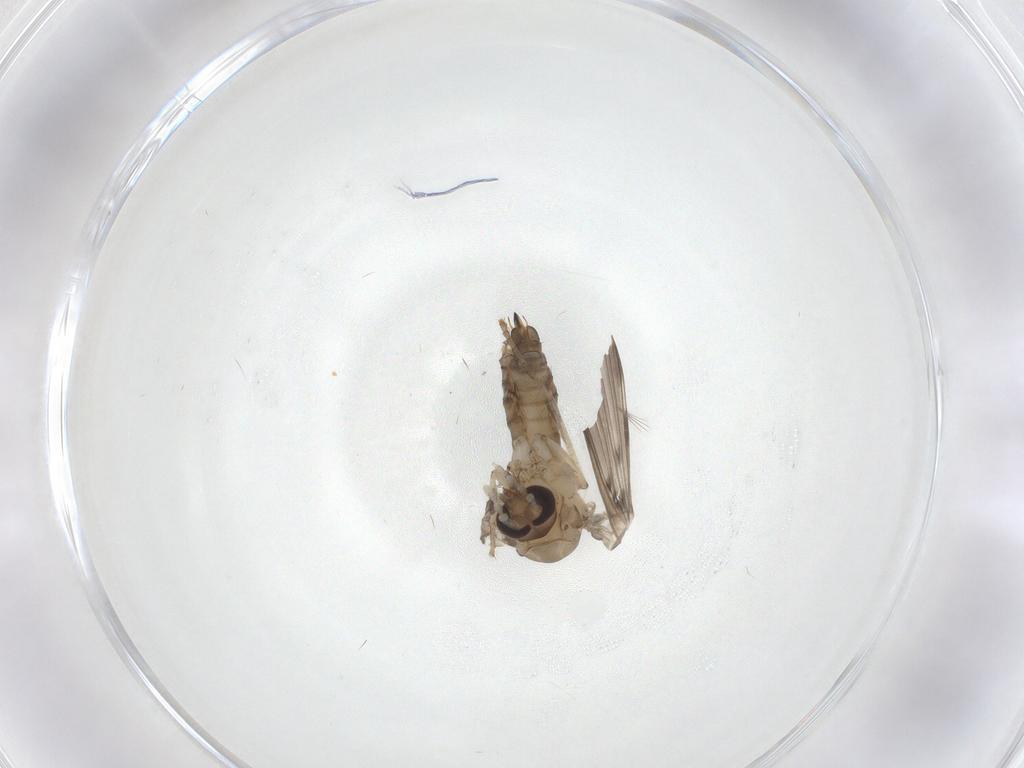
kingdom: Animalia
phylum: Arthropoda
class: Insecta
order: Diptera
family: Psychodidae
